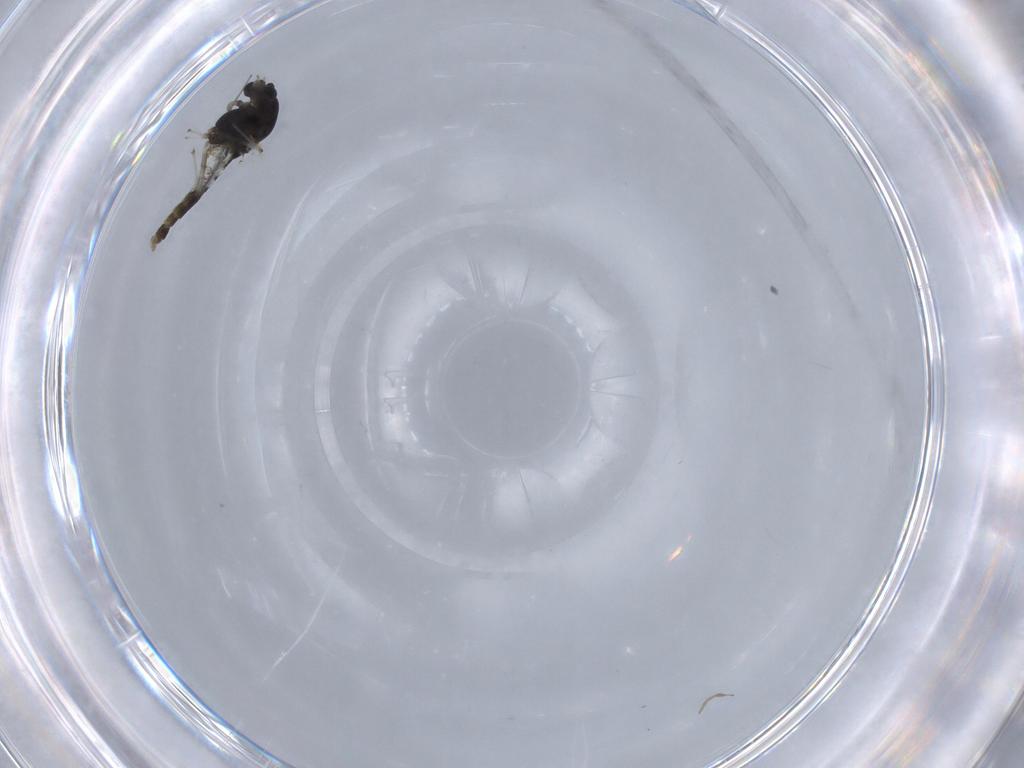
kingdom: Animalia
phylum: Arthropoda
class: Insecta
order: Diptera
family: Chironomidae
